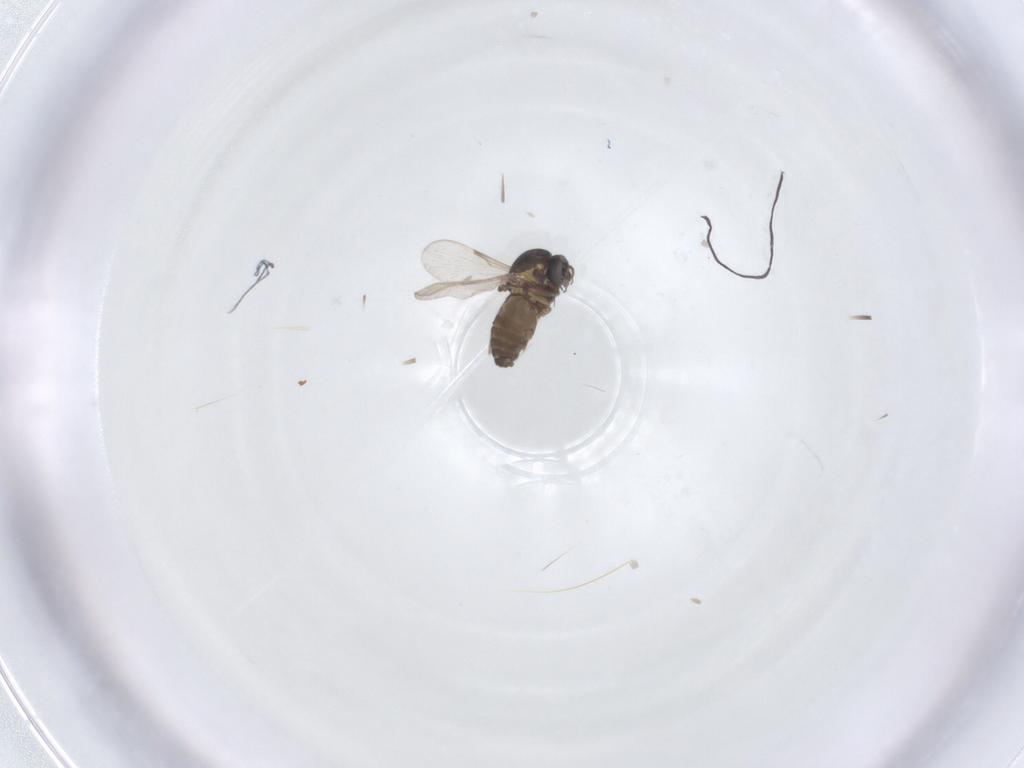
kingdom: Animalia
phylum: Arthropoda
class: Insecta
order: Diptera
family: Ceratopogonidae
